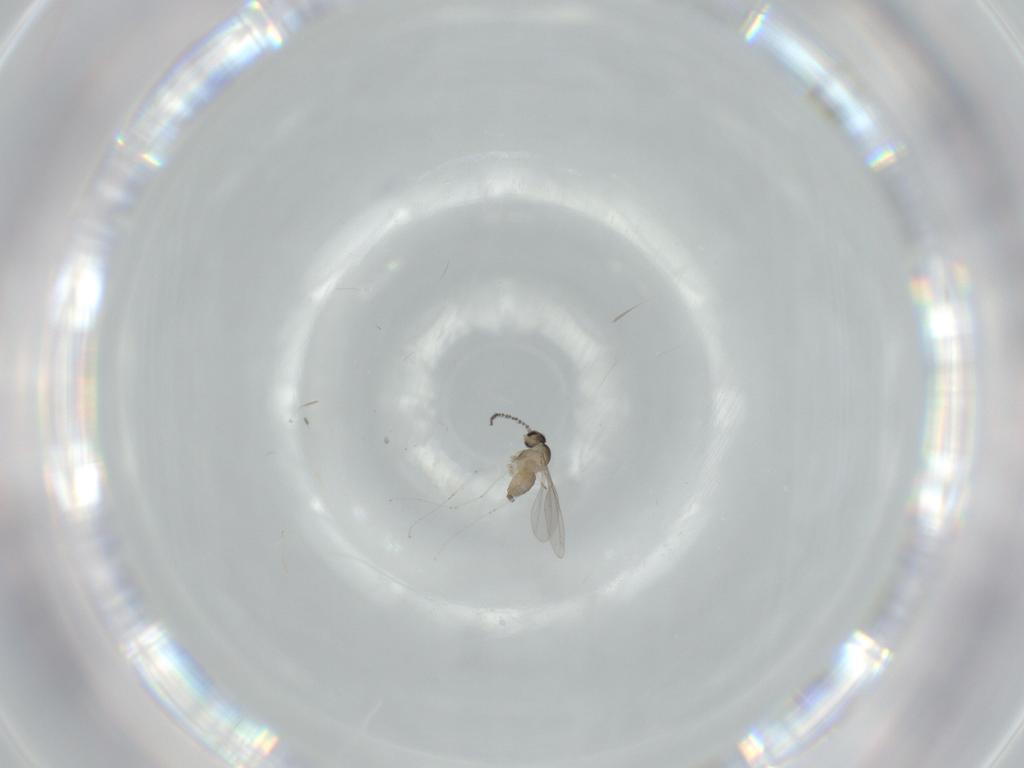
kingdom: Animalia
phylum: Arthropoda
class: Insecta
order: Diptera
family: Cecidomyiidae
